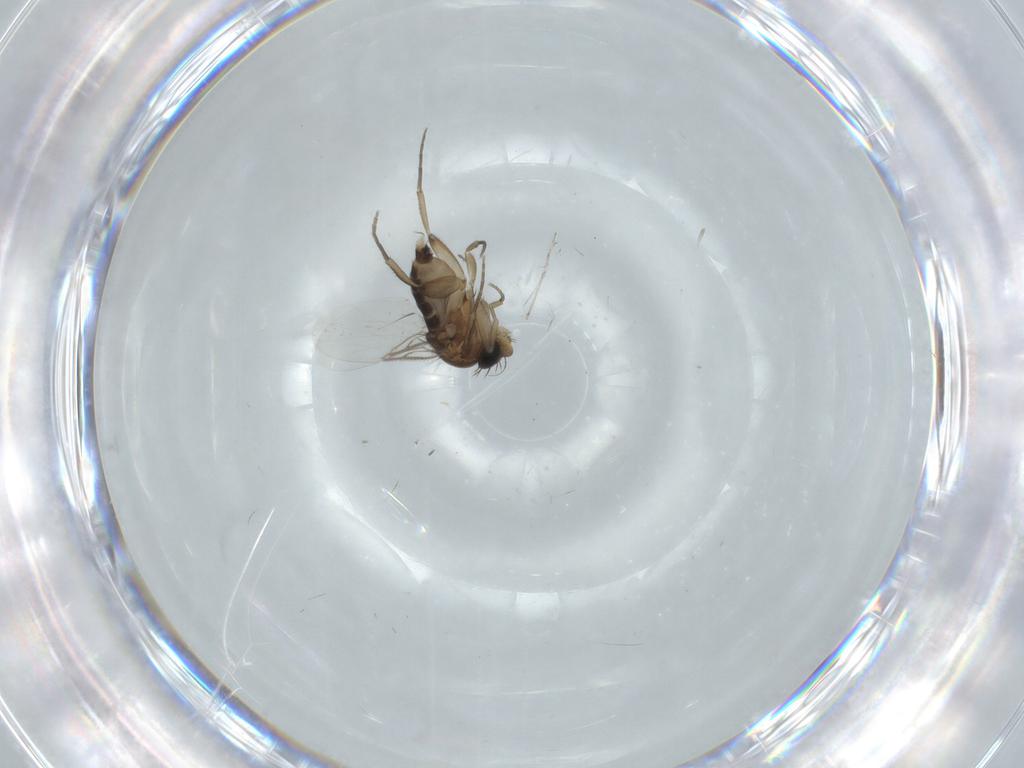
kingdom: Animalia
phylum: Arthropoda
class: Insecta
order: Diptera
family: Phoridae
